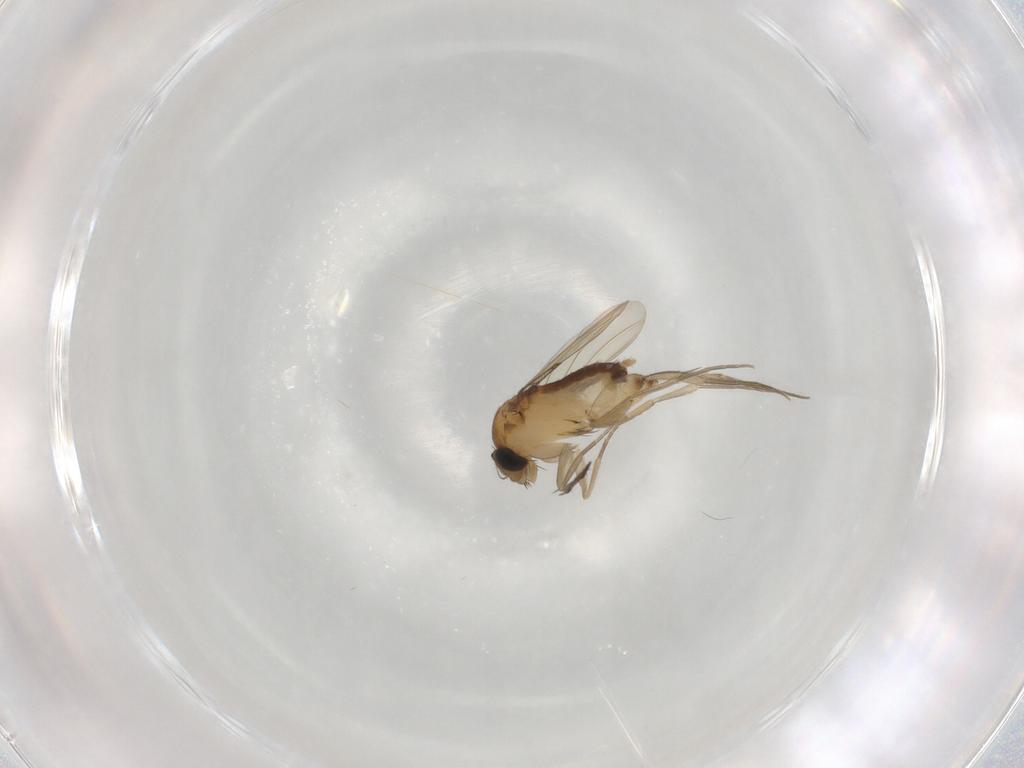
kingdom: Animalia
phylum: Arthropoda
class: Insecta
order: Diptera
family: Phoridae
